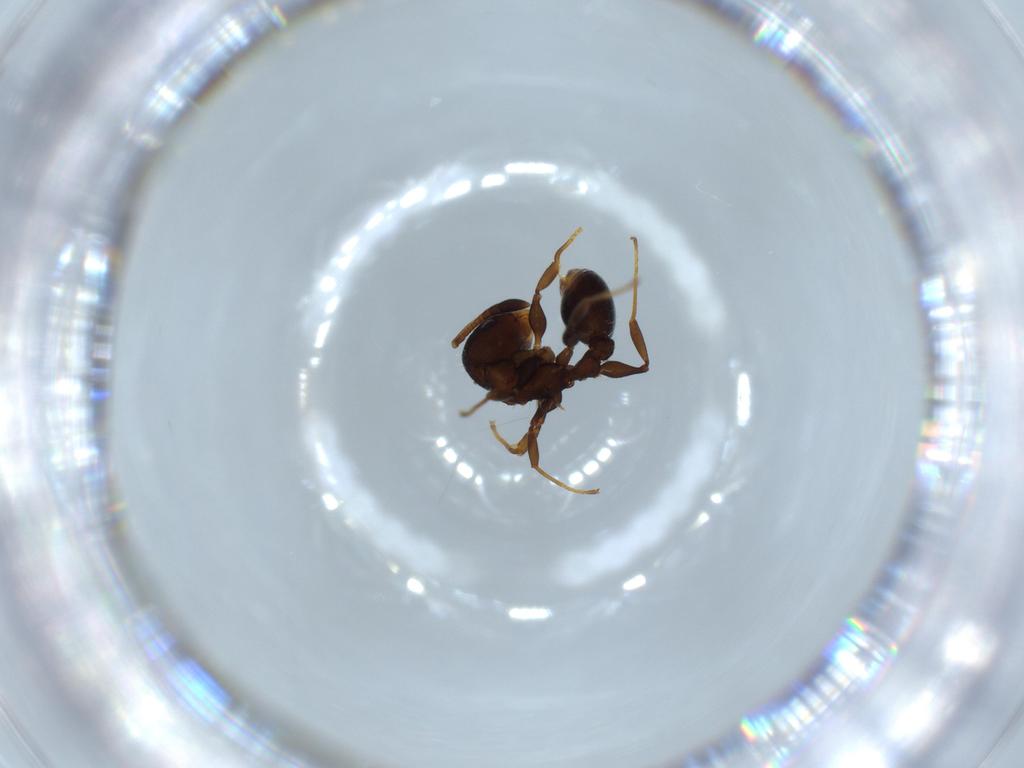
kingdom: Animalia
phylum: Arthropoda
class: Insecta
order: Hymenoptera
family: Formicidae
